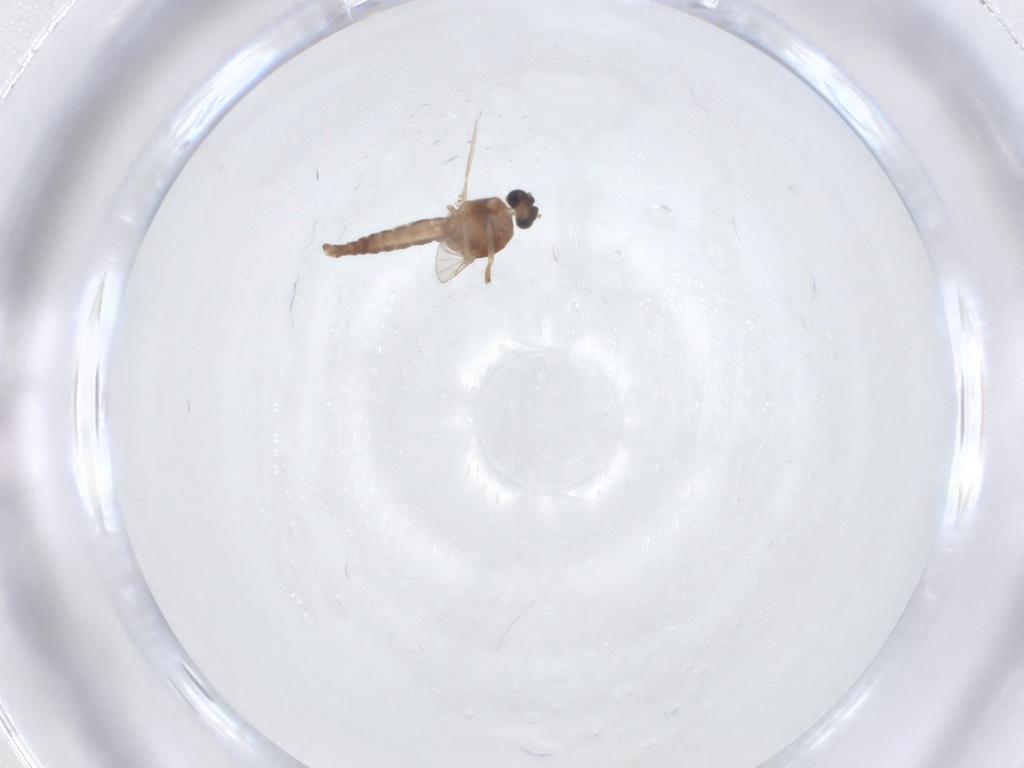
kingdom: Animalia
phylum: Arthropoda
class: Insecta
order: Diptera
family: Ceratopogonidae
